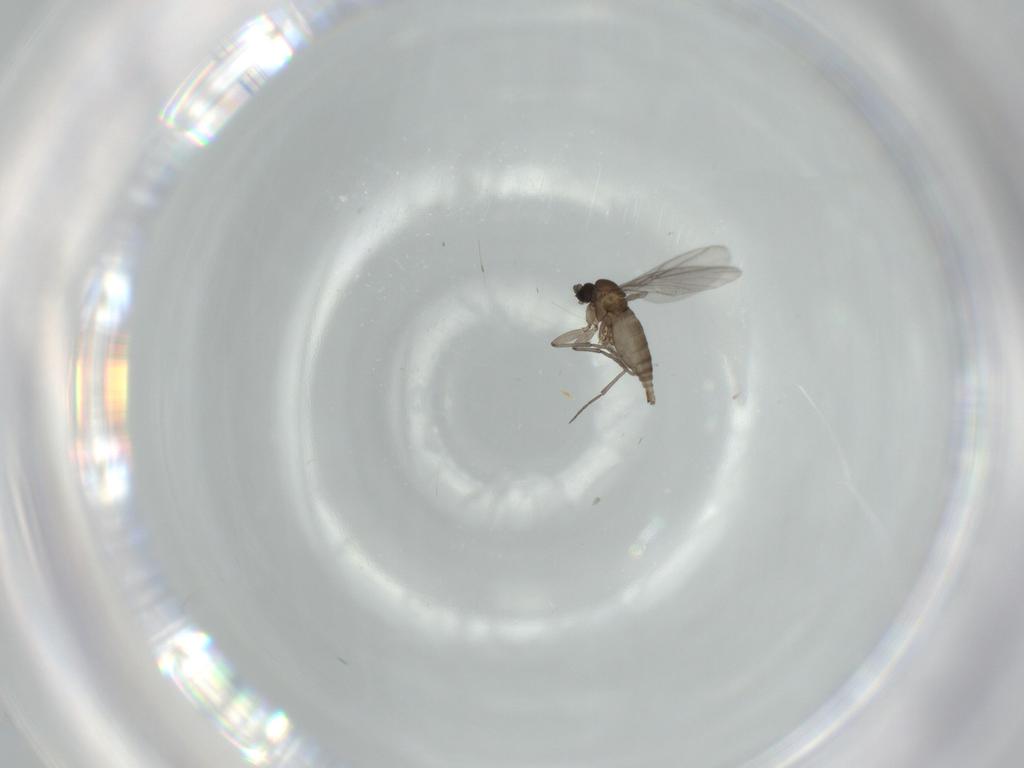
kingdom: Animalia
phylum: Arthropoda
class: Insecta
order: Diptera
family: Sciaridae
